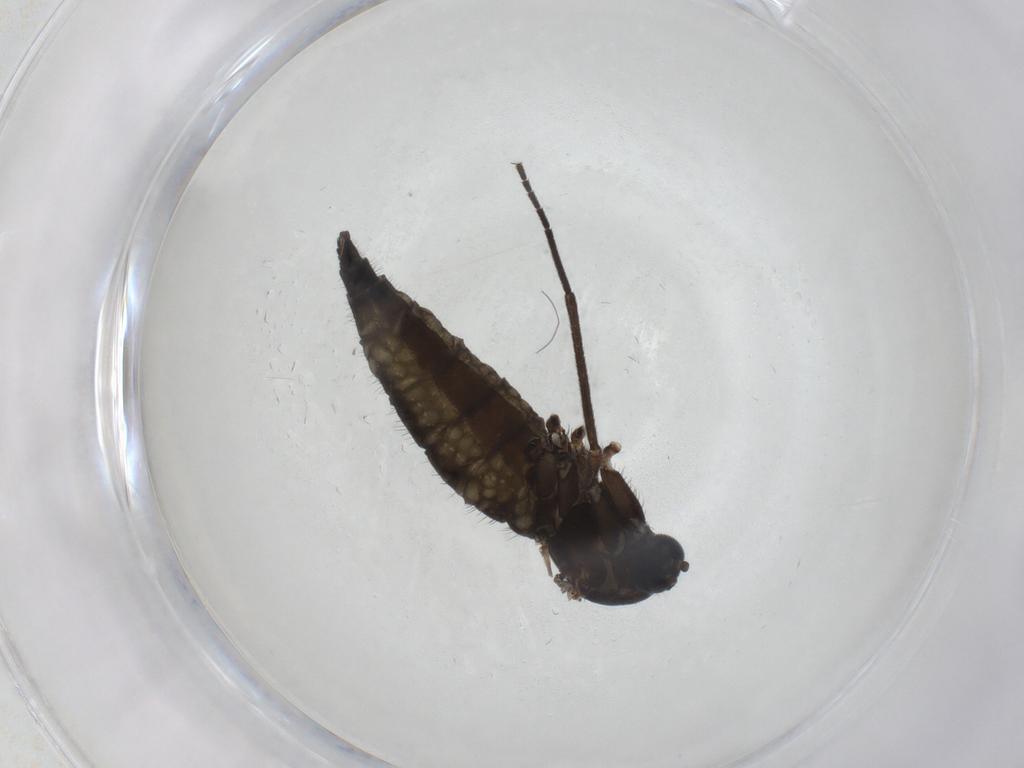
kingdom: Animalia
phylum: Arthropoda
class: Insecta
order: Diptera
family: Sciaridae
